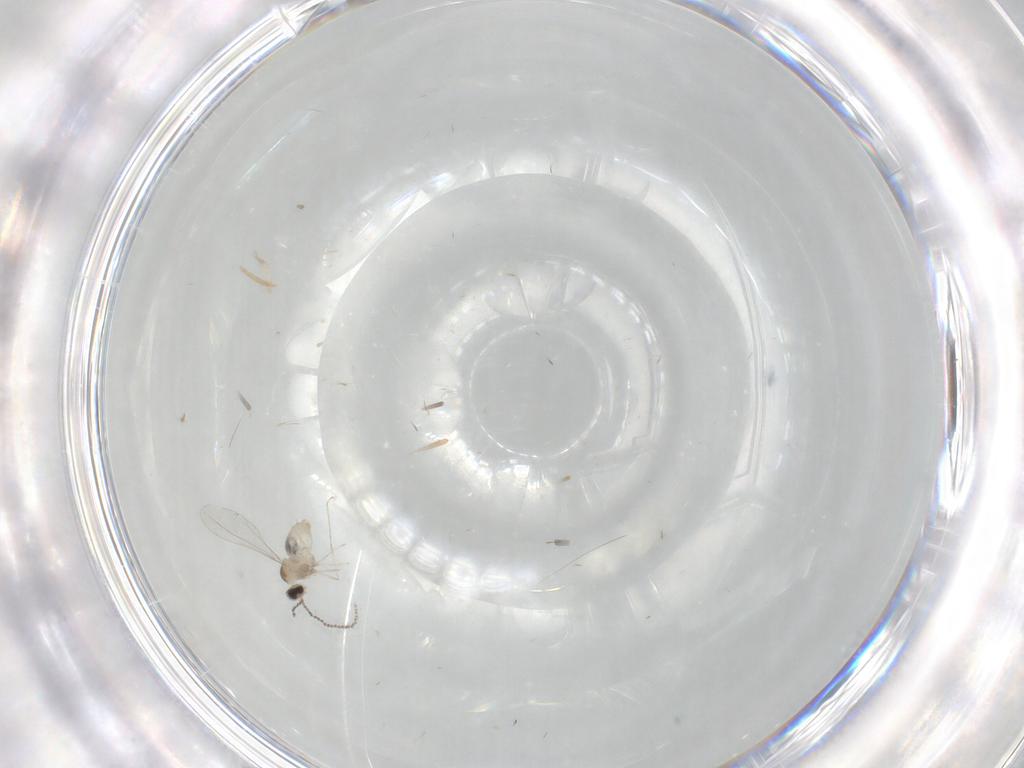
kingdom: Animalia
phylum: Arthropoda
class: Insecta
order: Diptera
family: Cecidomyiidae
